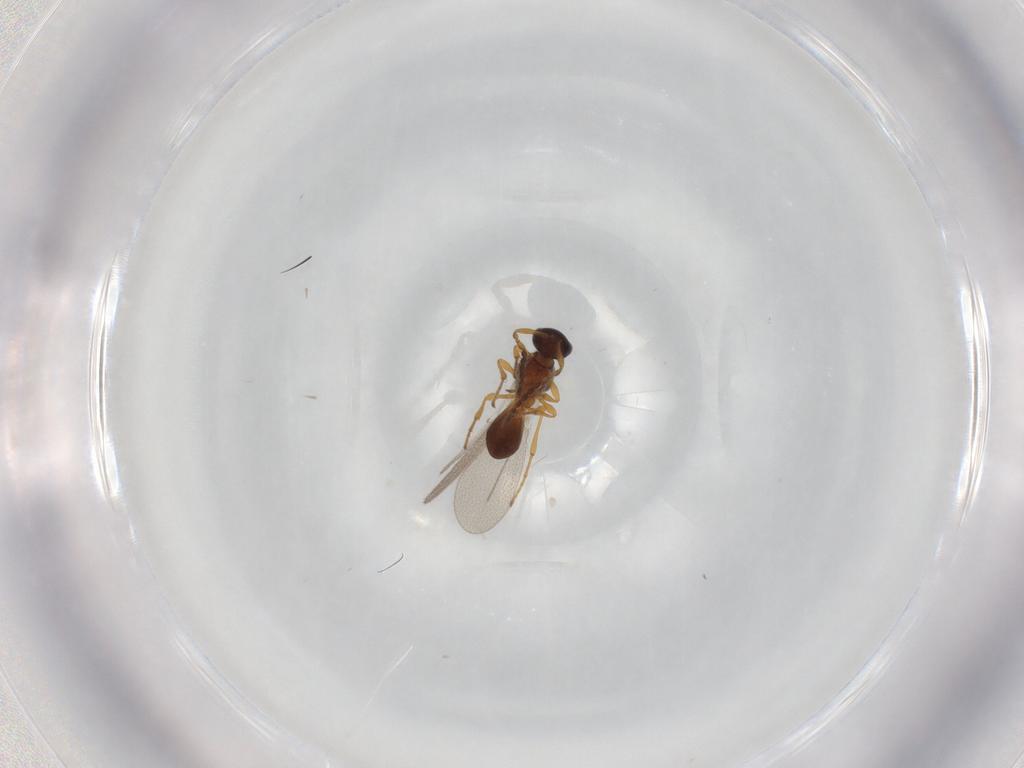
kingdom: Animalia
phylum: Arthropoda
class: Insecta
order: Diptera
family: Mythicomyiidae
